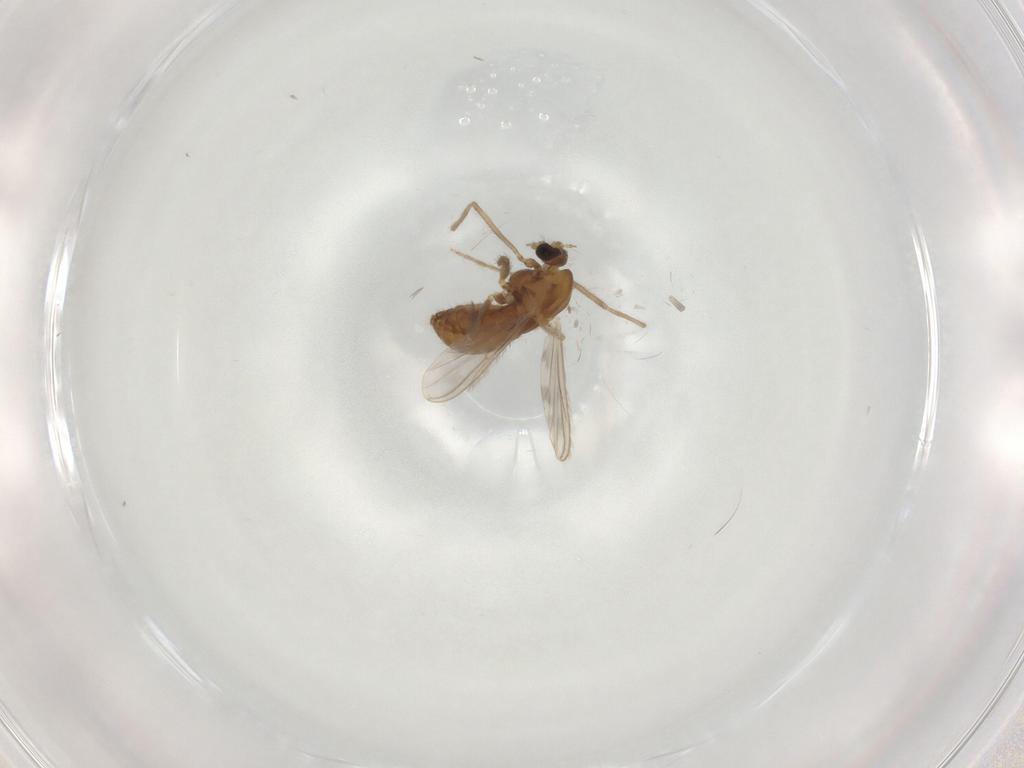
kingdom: Animalia
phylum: Arthropoda
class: Insecta
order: Diptera
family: Chironomidae
